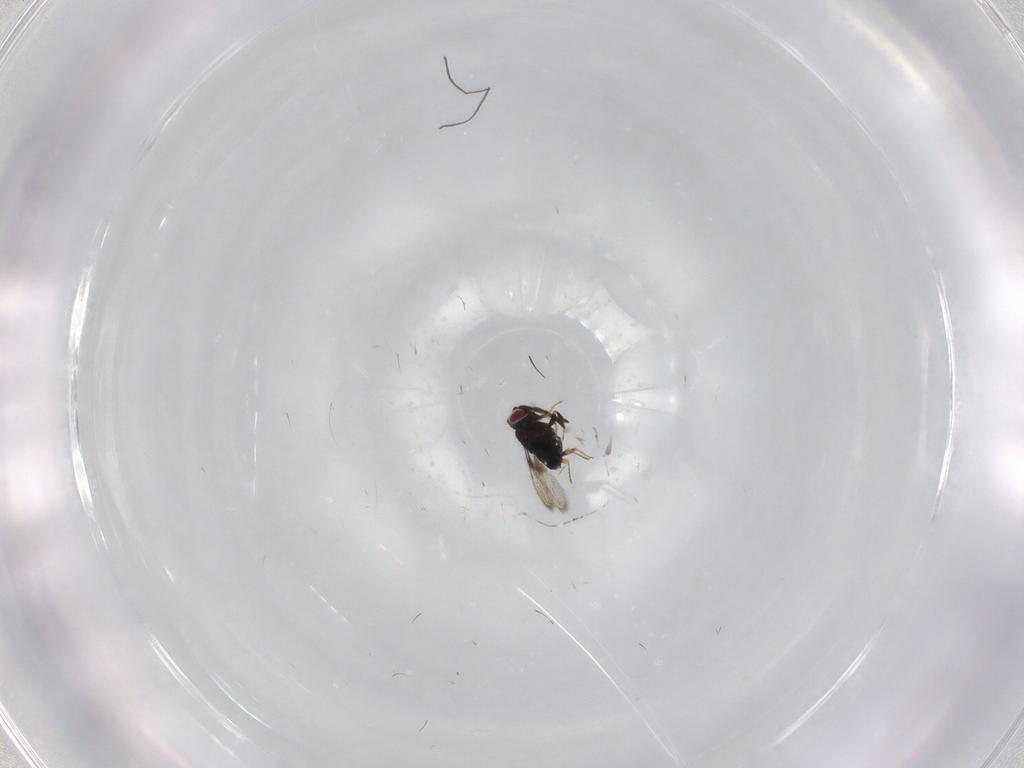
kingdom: Animalia
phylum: Arthropoda
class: Insecta
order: Hymenoptera
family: Azotidae
